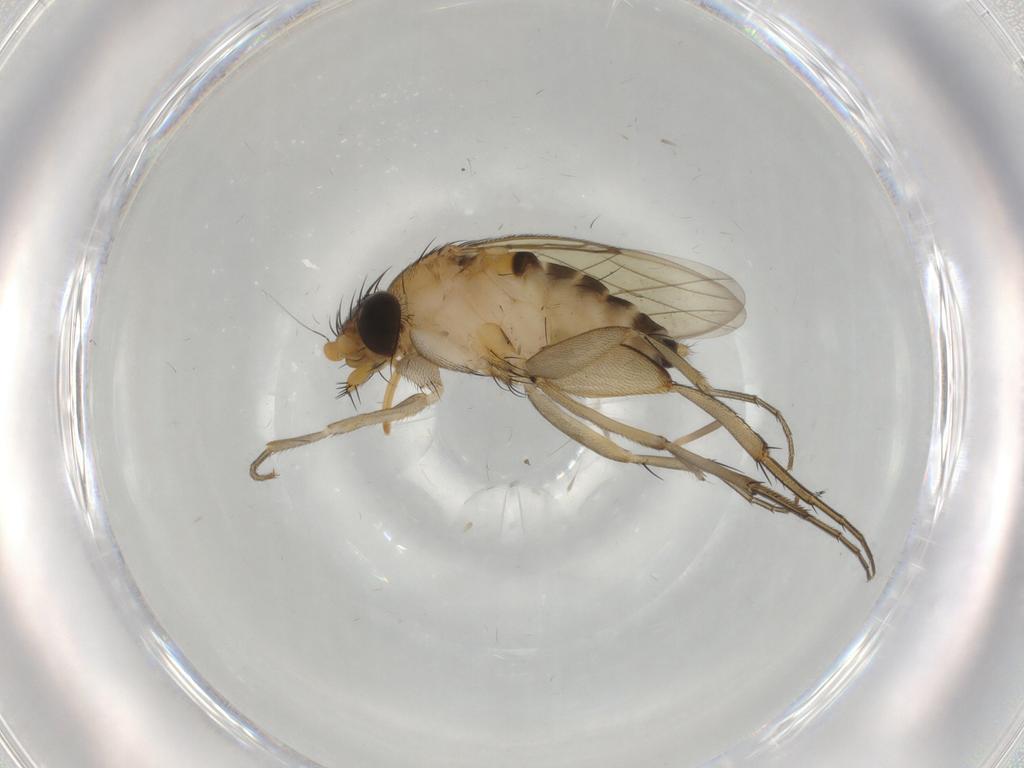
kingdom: Animalia
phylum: Arthropoda
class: Insecta
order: Diptera
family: Phoridae
